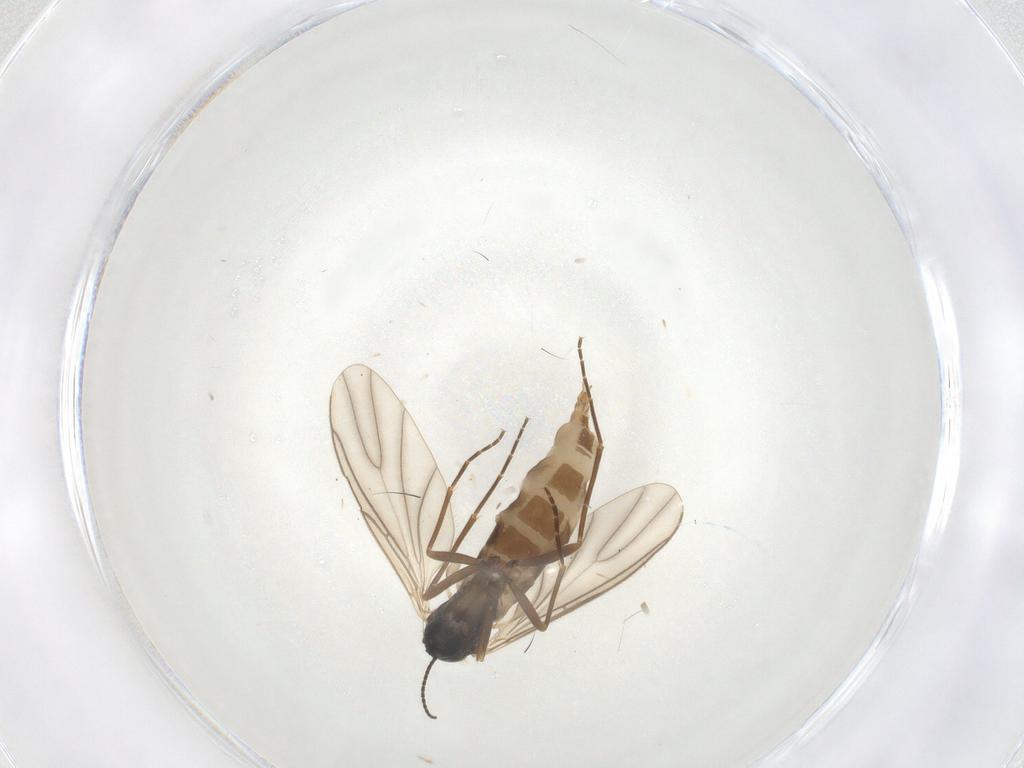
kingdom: Animalia
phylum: Arthropoda
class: Insecta
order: Diptera
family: Sciaridae
